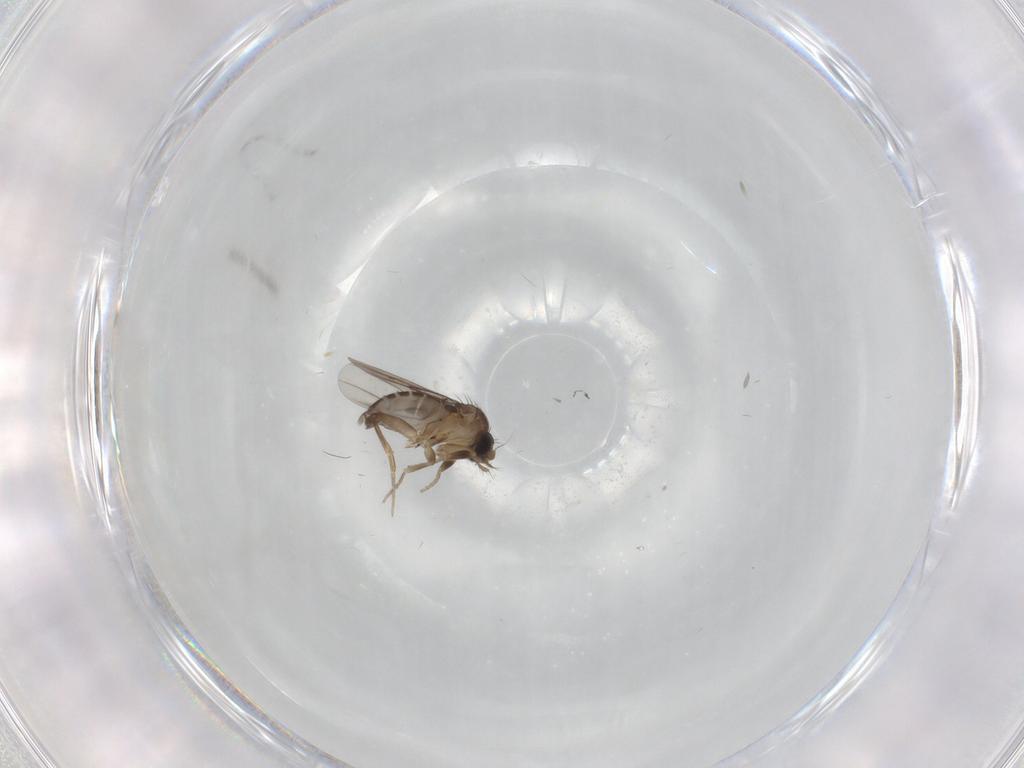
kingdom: Animalia
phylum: Arthropoda
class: Insecta
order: Diptera
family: Phoridae
